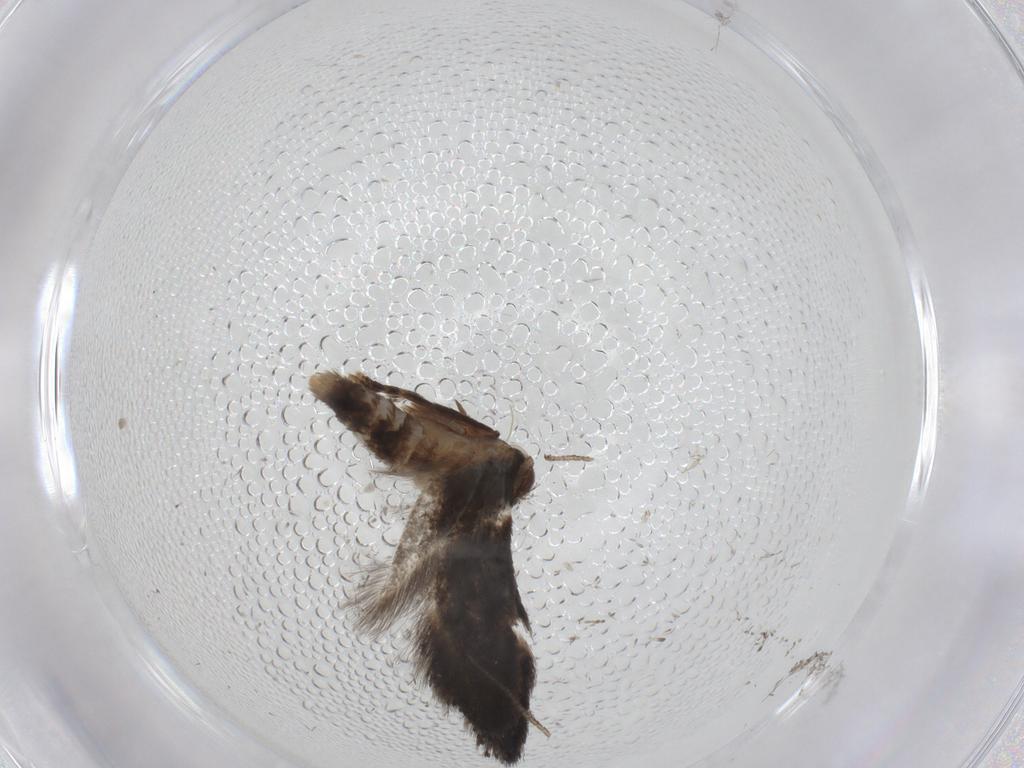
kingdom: Animalia
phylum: Arthropoda
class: Insecta
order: Lepidoptera
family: Elachistidae
